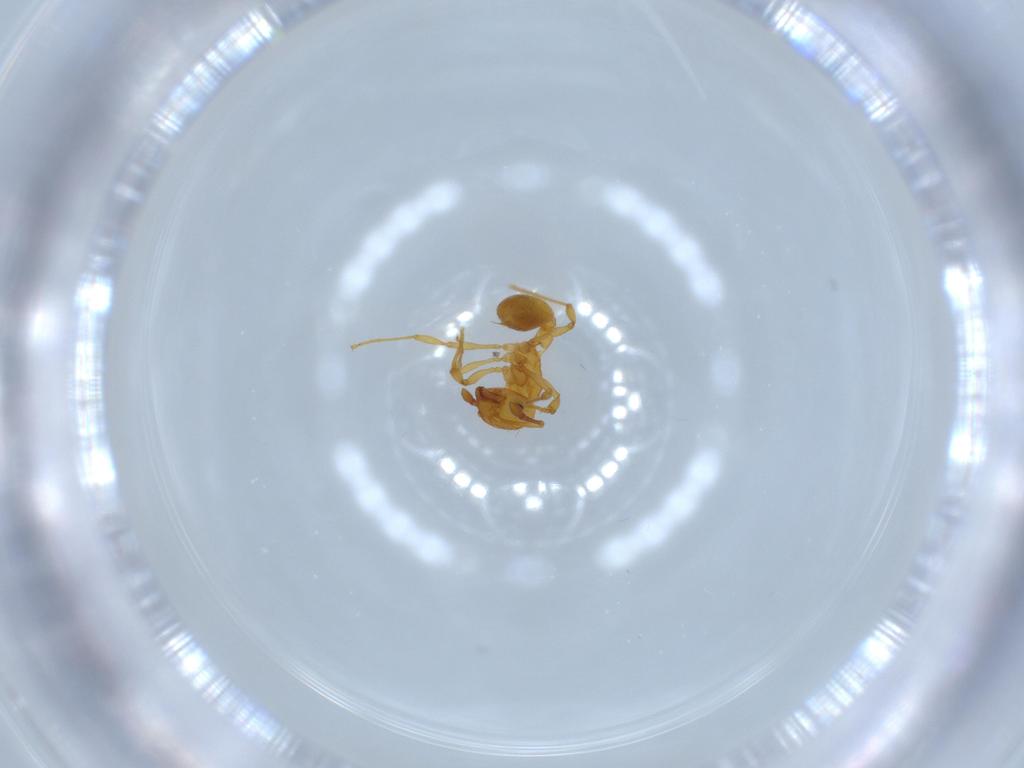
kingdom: Animalia
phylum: Arthropoda
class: Insecta
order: Hymenoptera
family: Formicidae
